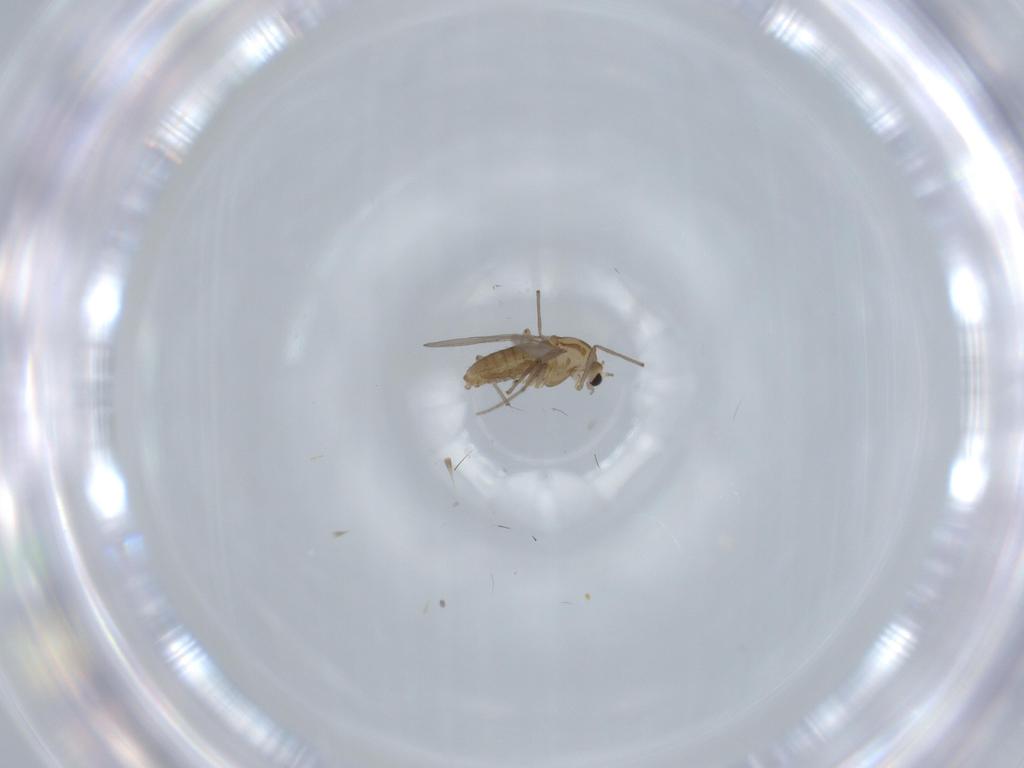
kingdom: Animalia
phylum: Arthropoda
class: Insecta
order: Diptera
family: Chironomidae
